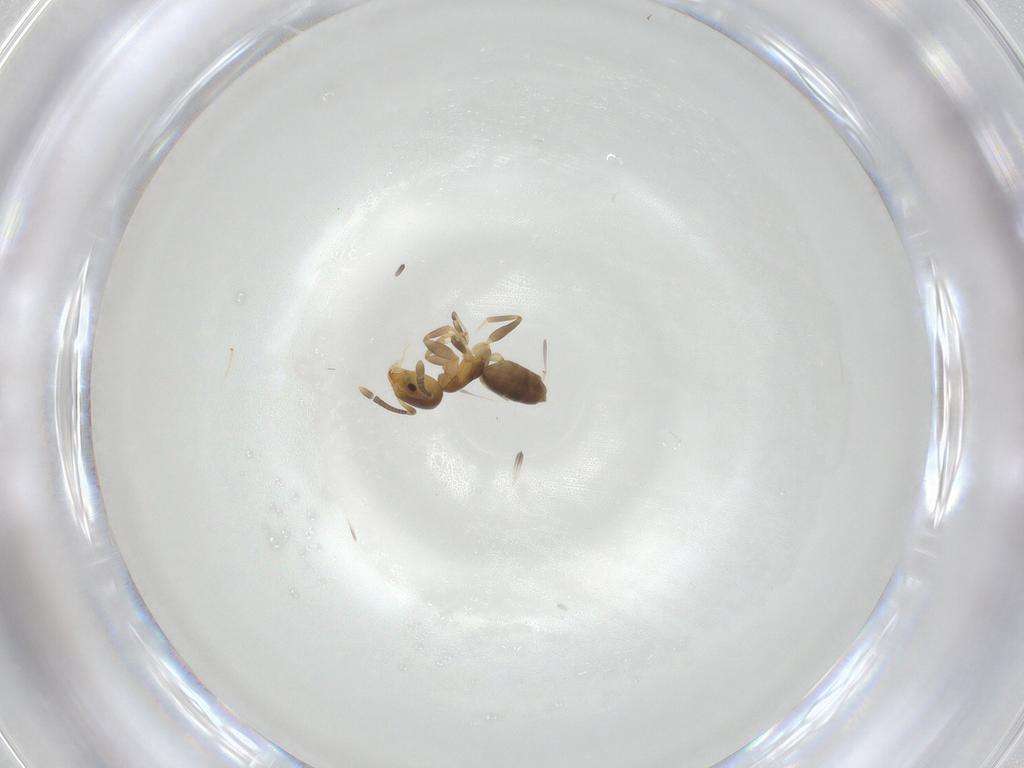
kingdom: Animalia
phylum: Arthropoda
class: Insecta
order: Hymenoptera
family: Formicidae
